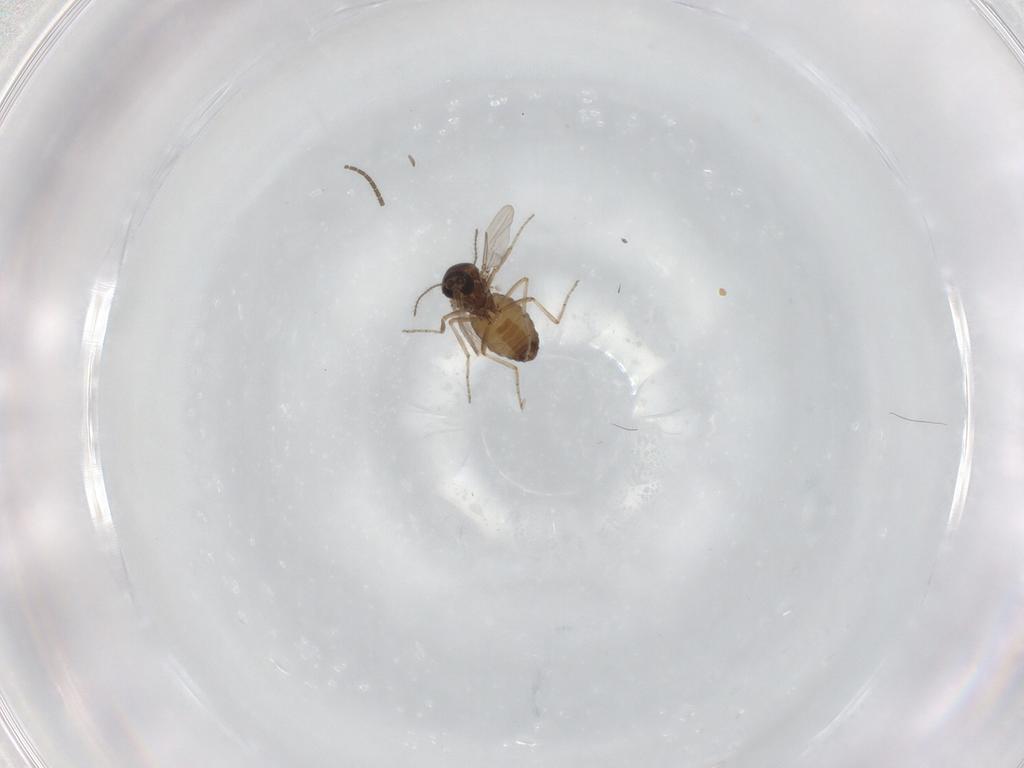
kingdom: Animalia
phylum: Arthropoda
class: Insecta
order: Diptera
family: Ceratopogonidae
